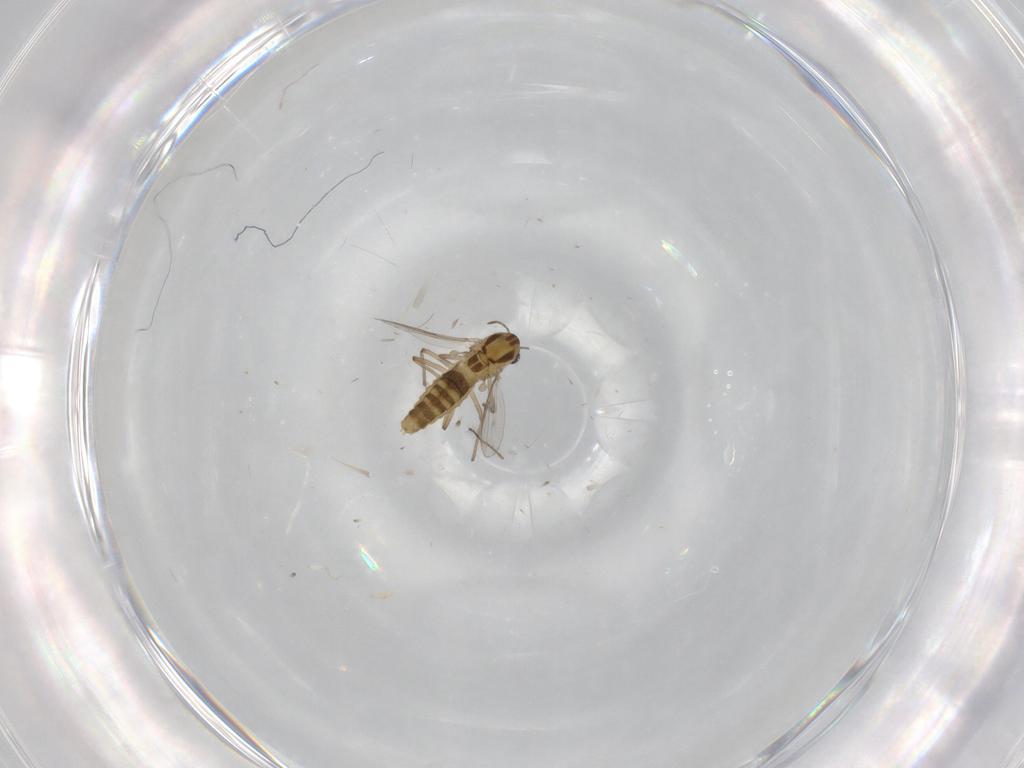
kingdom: Animalia
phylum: Arthropoda
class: Insecta
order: Diptera
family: Chironomidae
